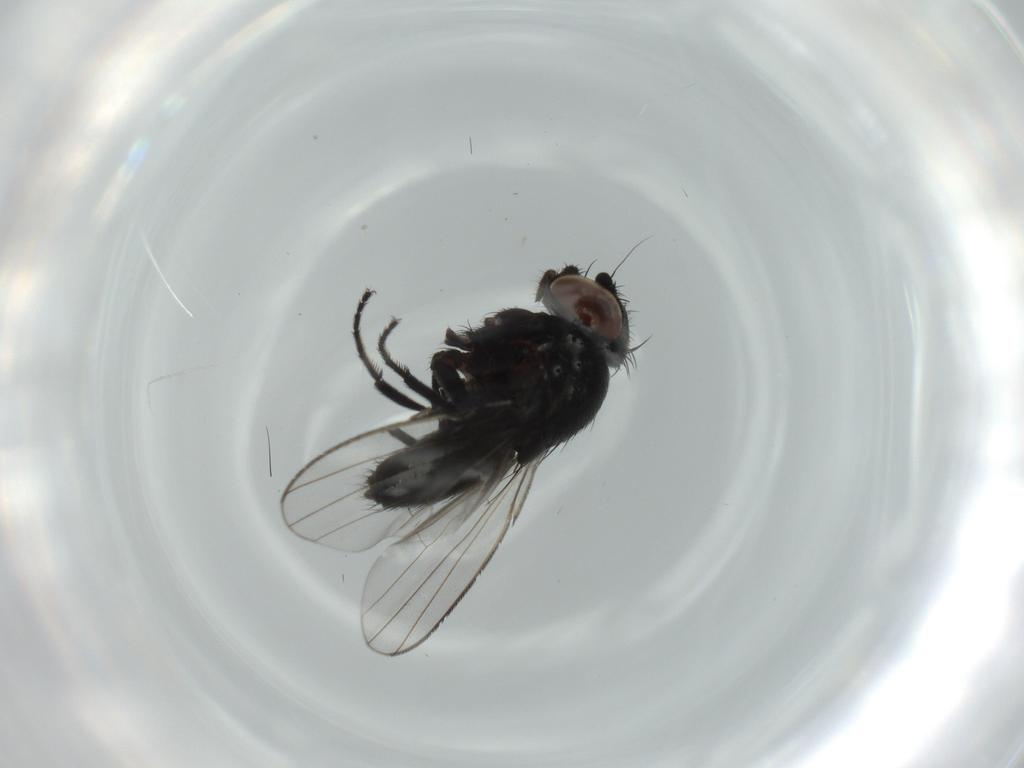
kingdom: Animalia
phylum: Arthropoda
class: Insecta
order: Diptera
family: Milichiidae
